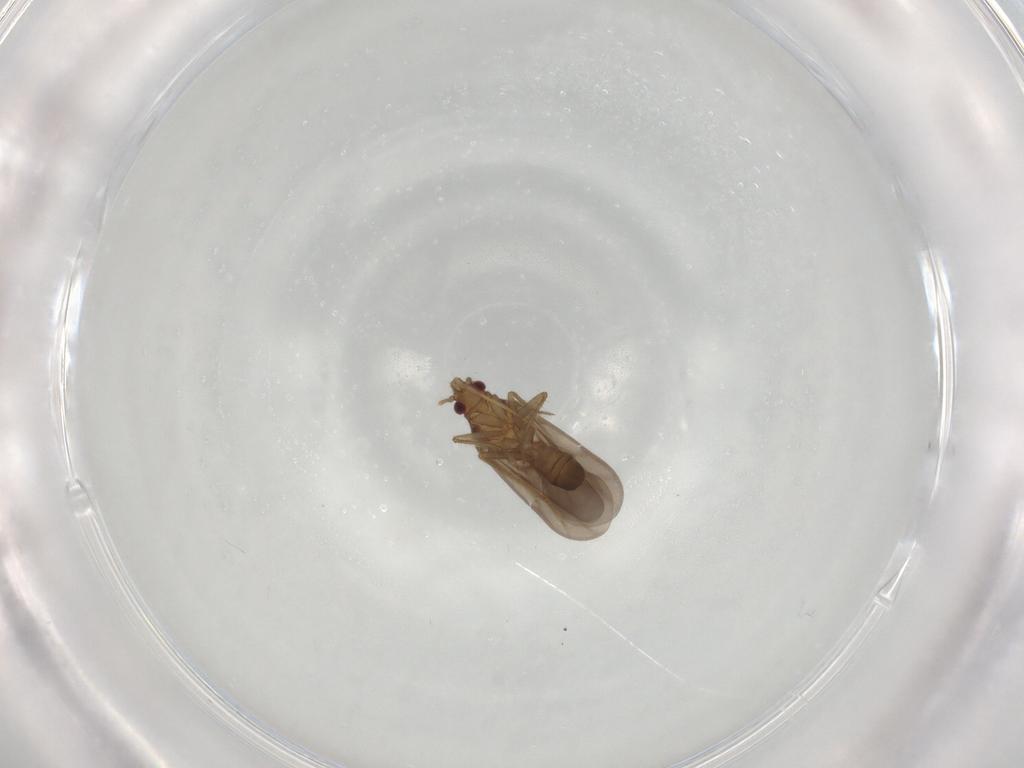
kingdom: Animalia
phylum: Arthropoda
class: Insecta
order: Hemiptera
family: Ceratocombidae
